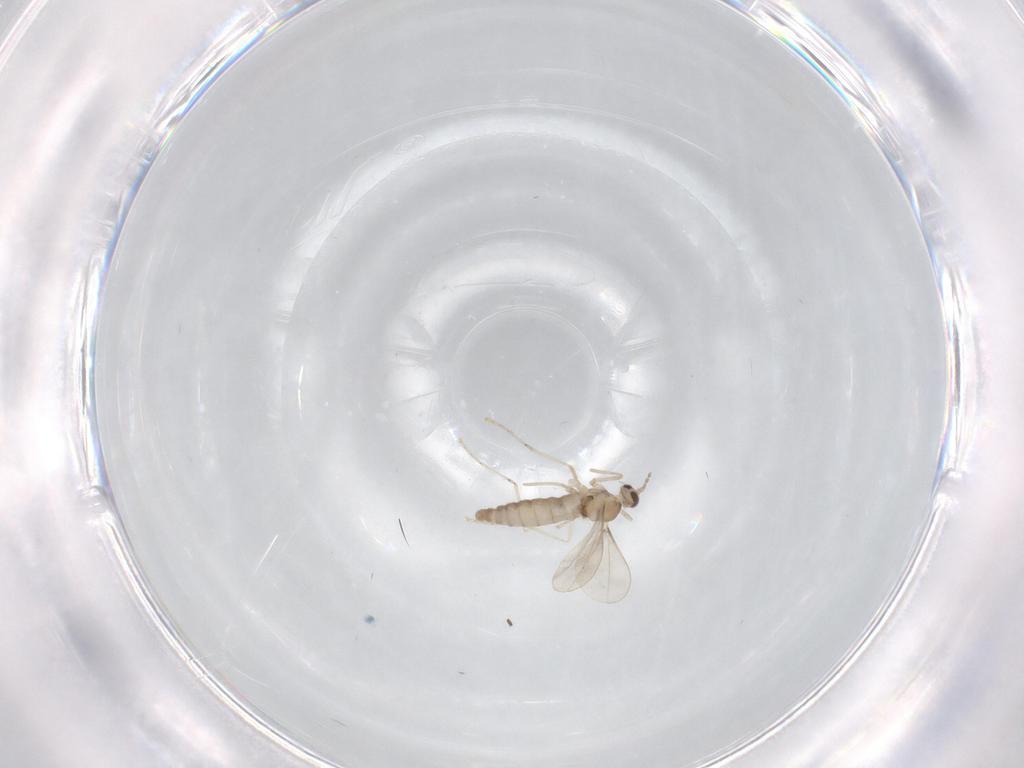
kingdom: Animalia
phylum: Arthropoda
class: Insecta
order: Diptera
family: Cecidomyiidae
